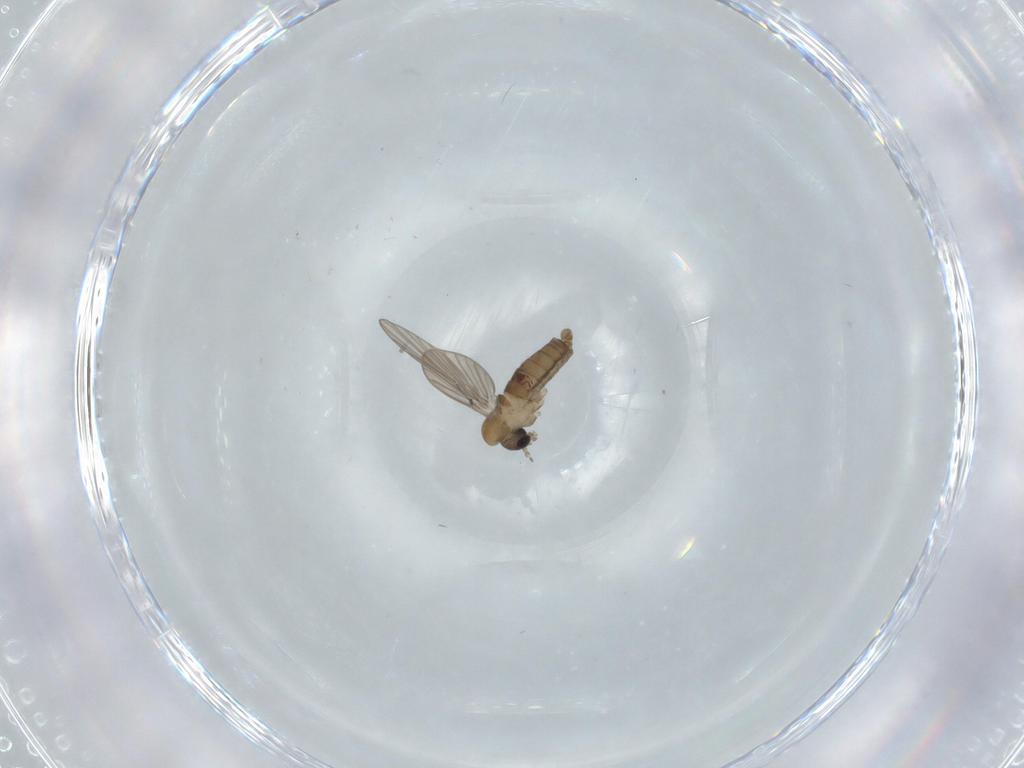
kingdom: Animalia
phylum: Arthropoda
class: Insecta
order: Diptera
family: Psychodidae
